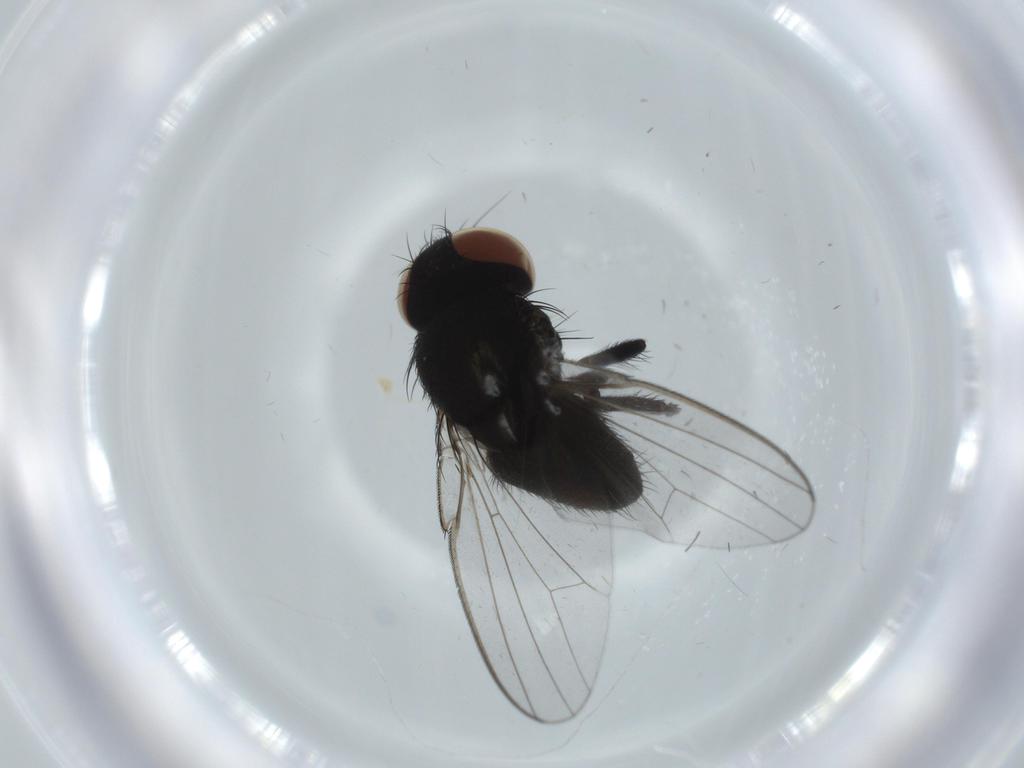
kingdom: Animalia
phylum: Arthropoda
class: Insecta
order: Diptera
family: Milichiidae
